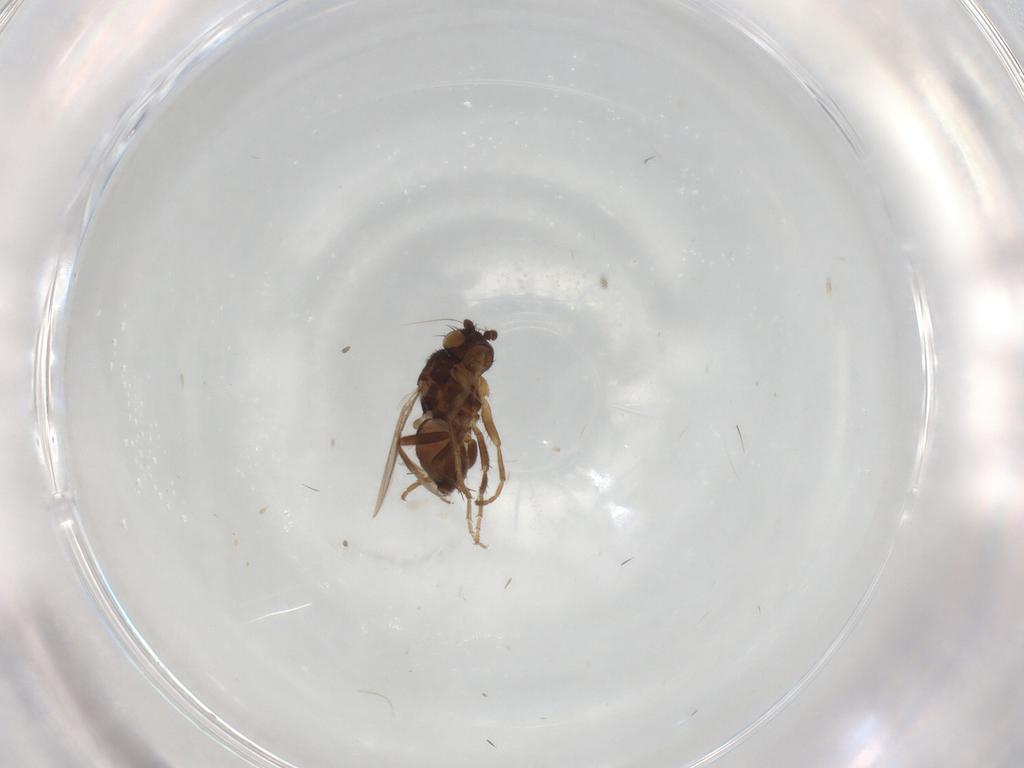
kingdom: Animalia
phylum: Arthropoda
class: Insecta
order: Diptera
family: Sphaeroceridae
